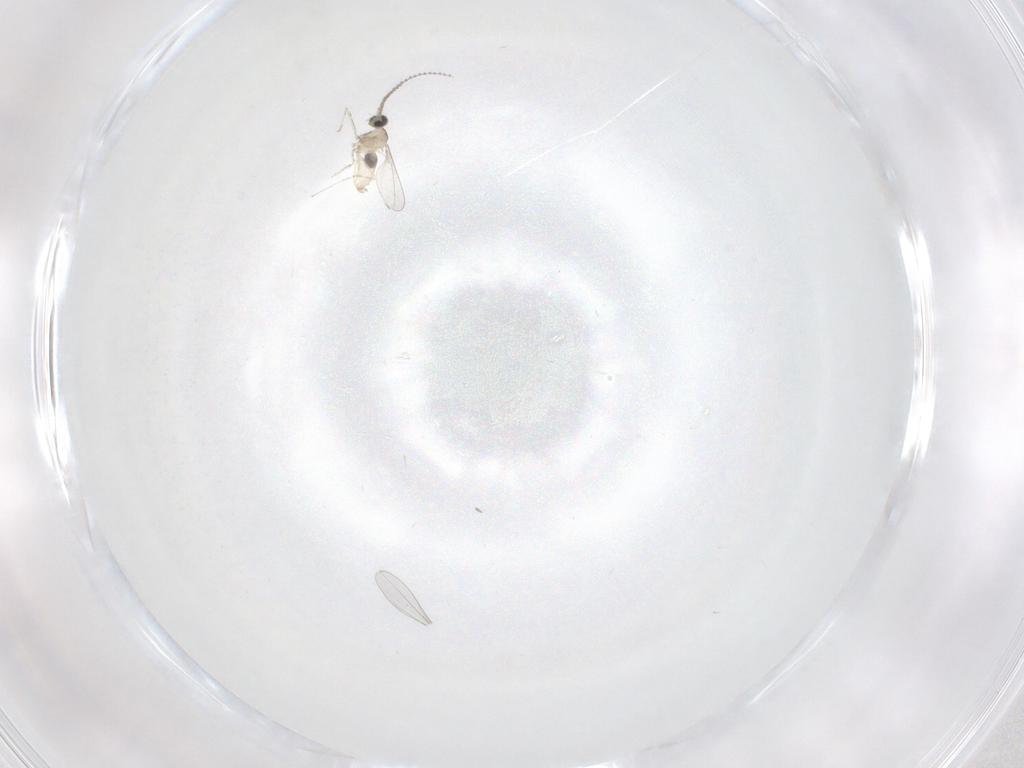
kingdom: Animalia
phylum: Arthropoda
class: Insecta
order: Diptera
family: Cecidomyiidae
